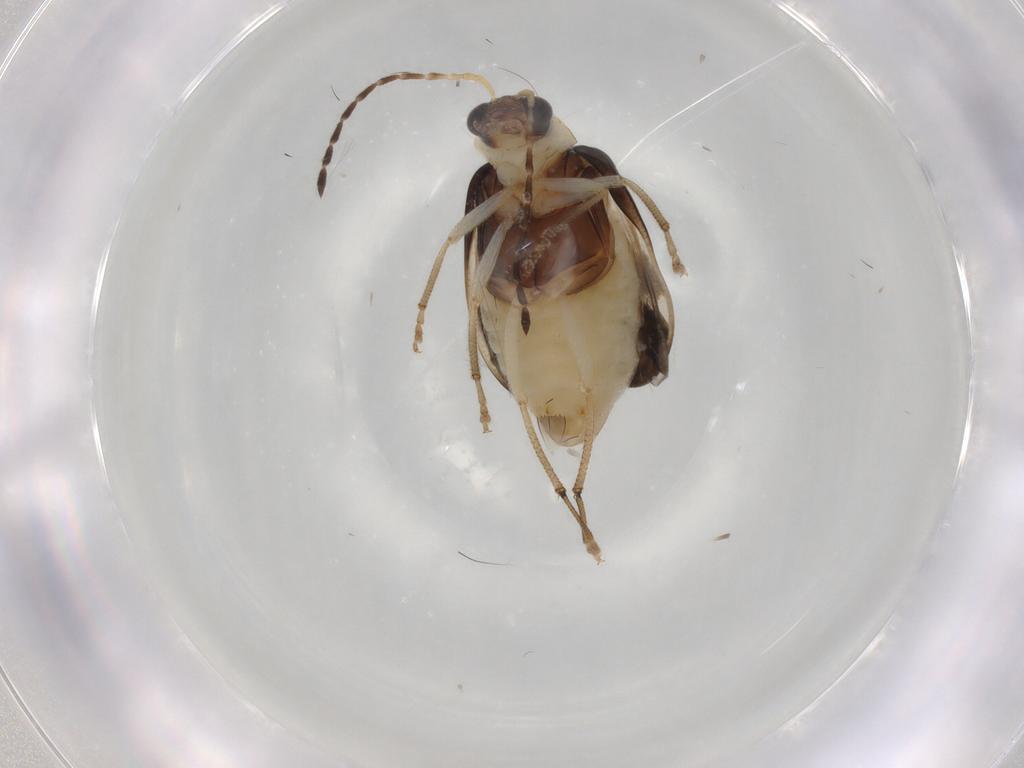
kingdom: Animalia
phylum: Arthropoda
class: Insecta
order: Coleoptera
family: Chrysomelidae
